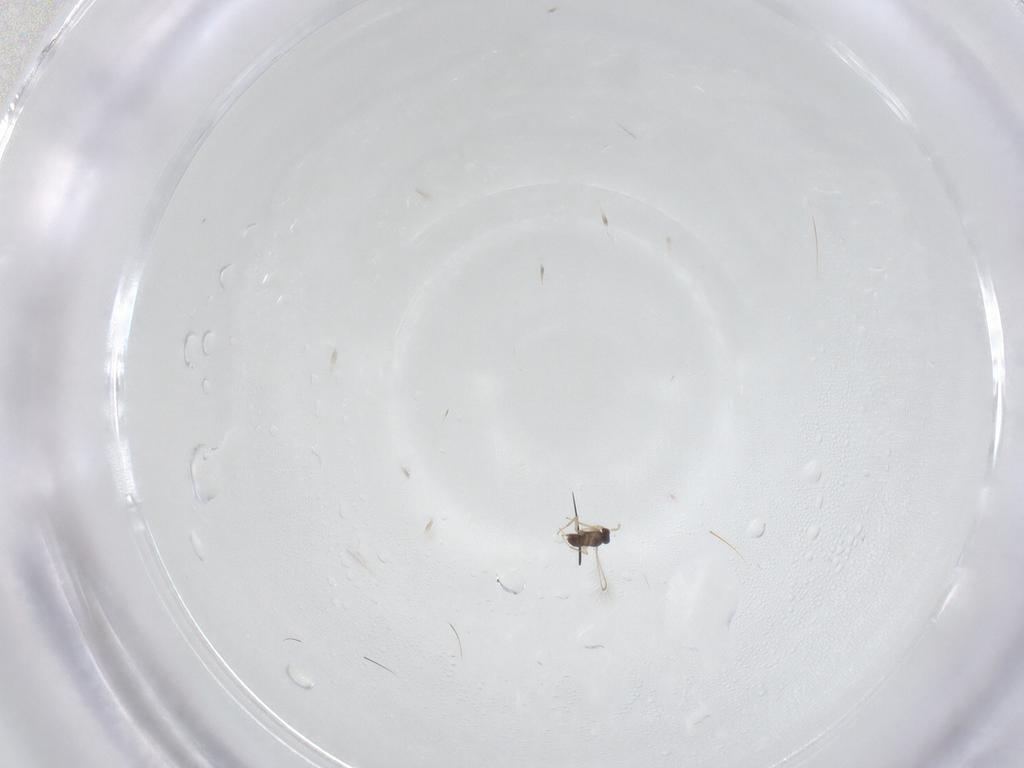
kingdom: Animalia
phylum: Arthropoda
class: Insecta
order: Hymenoptera
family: Mymaridae
